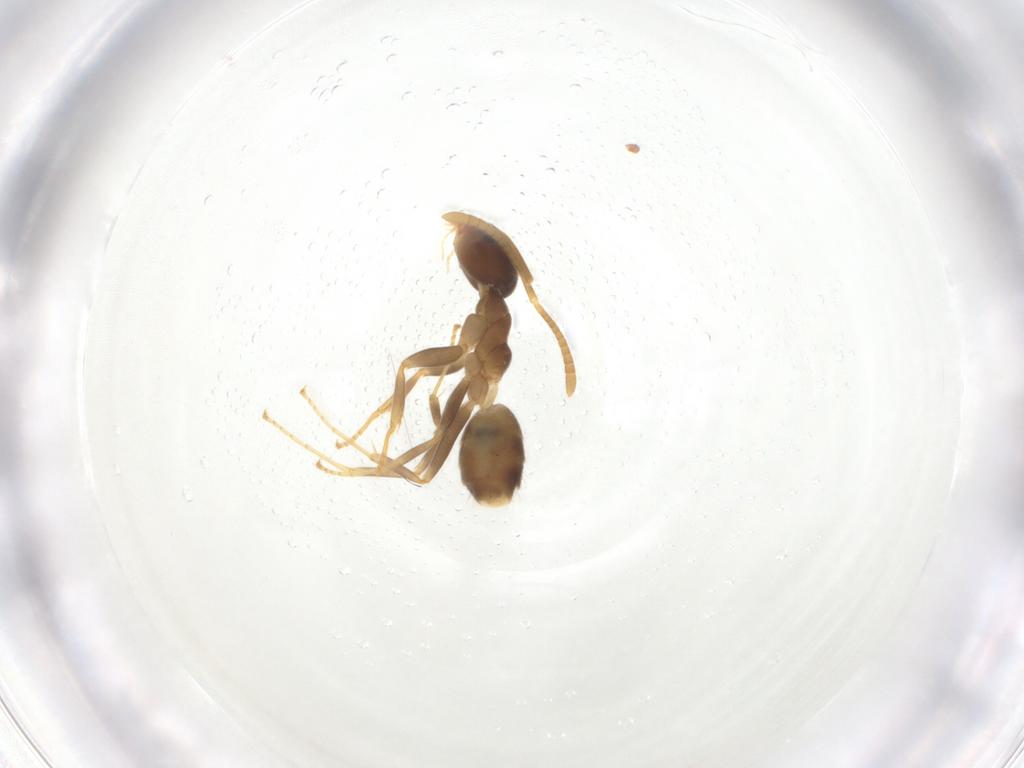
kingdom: Animalia
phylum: Arthropoda
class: Insecta
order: Hymenoptera
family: Formicidae
